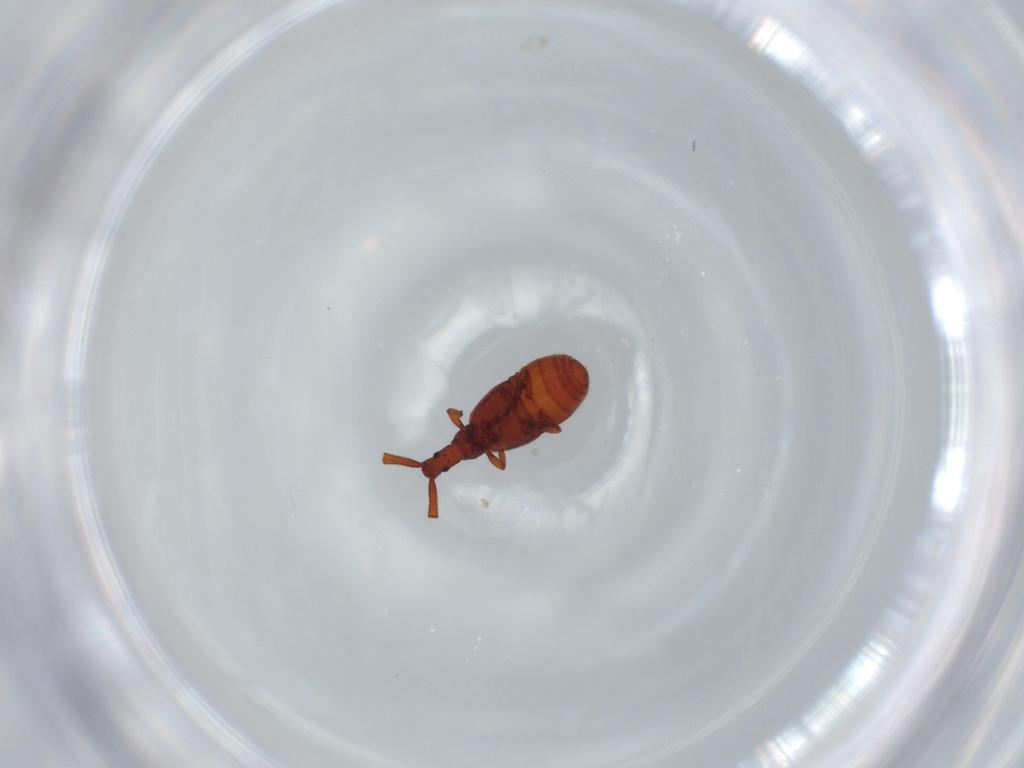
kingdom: Animalia
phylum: Arthropoda
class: Insecta
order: Coleoptera
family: Staphylinidae
